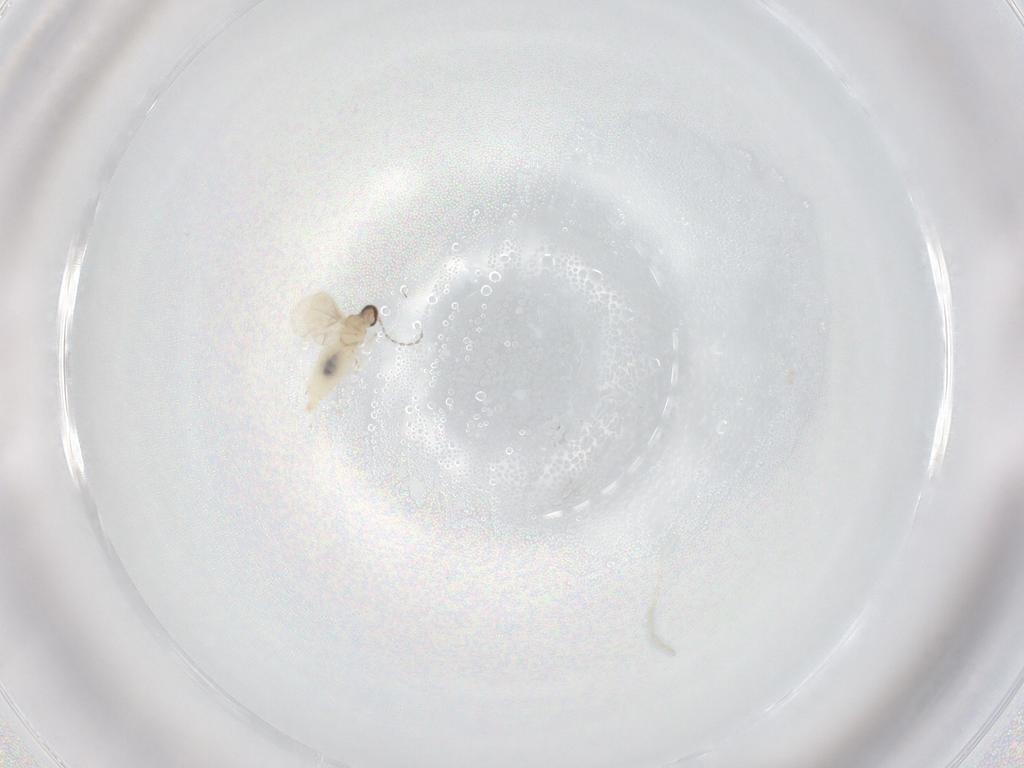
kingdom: Animalia
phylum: Arthropoda
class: Insecta
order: Diptera
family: Cecidomyiidae
